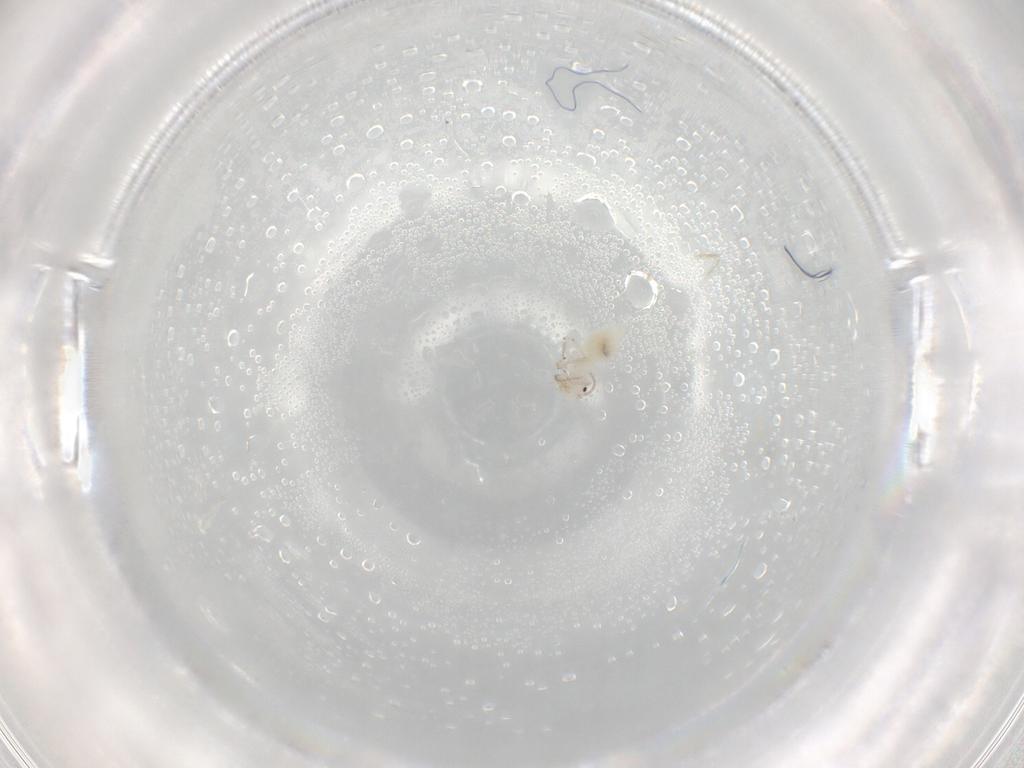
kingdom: Animalia
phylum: Arthropoda
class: Insecta
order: Psocodea
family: Caeciliusidae
